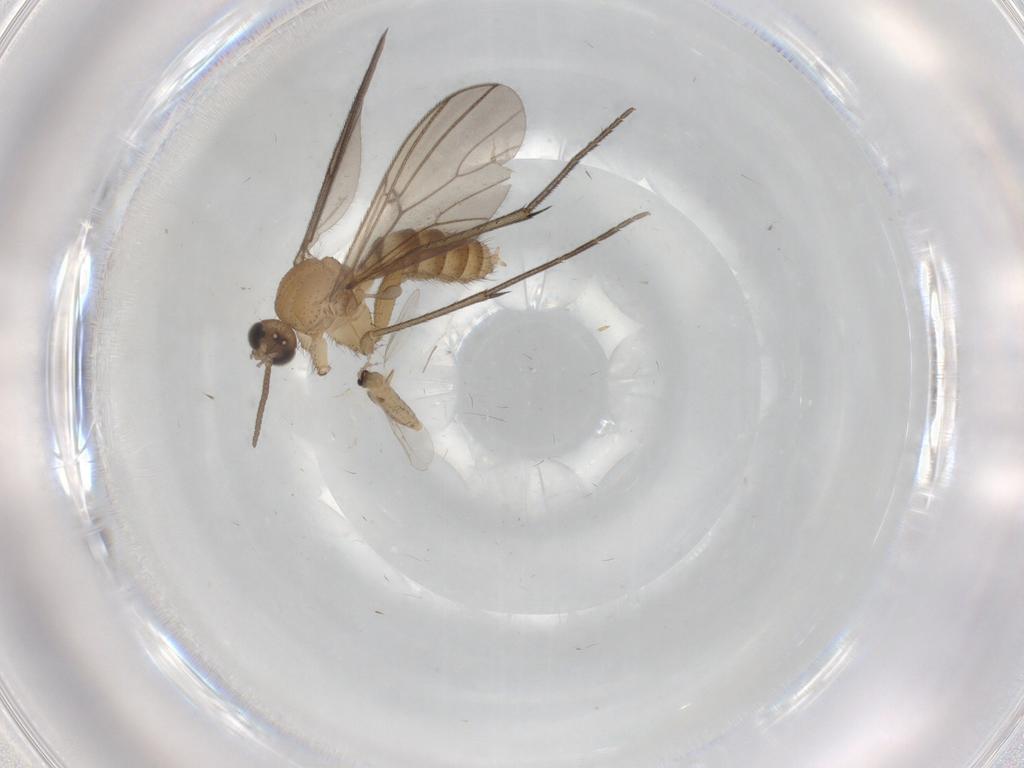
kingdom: Animalia
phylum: Arthropoda
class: Insecta
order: Diptera
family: Mycetophilidae
